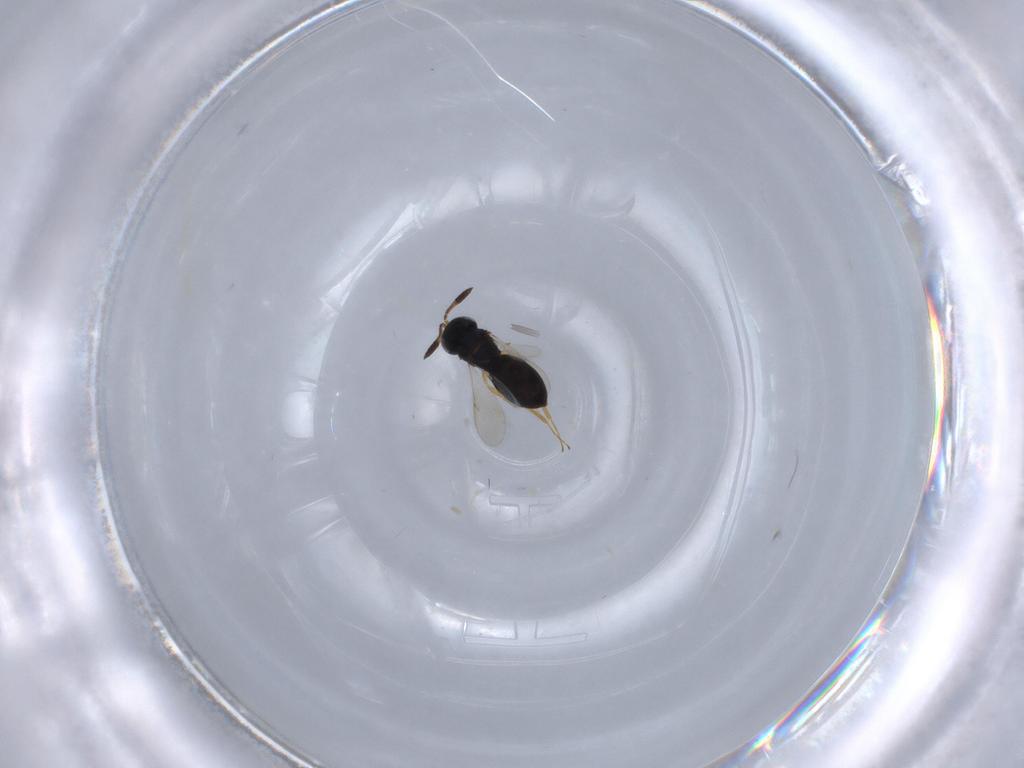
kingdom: Animalia
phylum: Arthropoda
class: Insecta
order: Hymenoptera
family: Scelionidae
